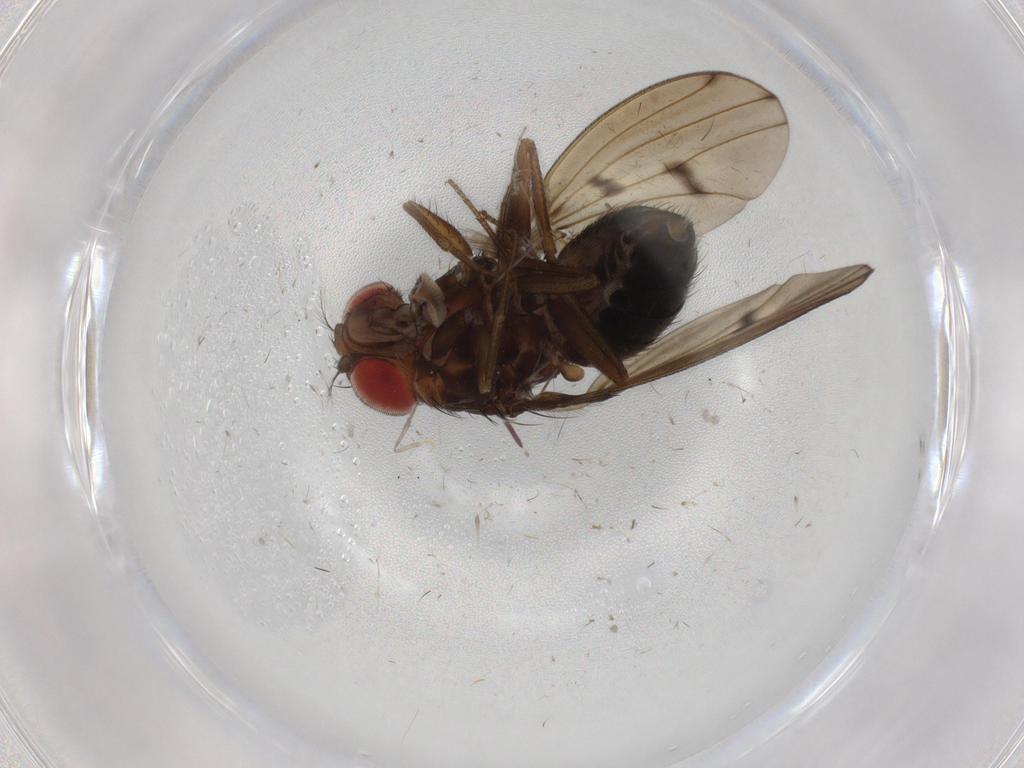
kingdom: Animalia
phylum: Arthropoda
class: Insecta
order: Diptera
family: Drosophilidae
